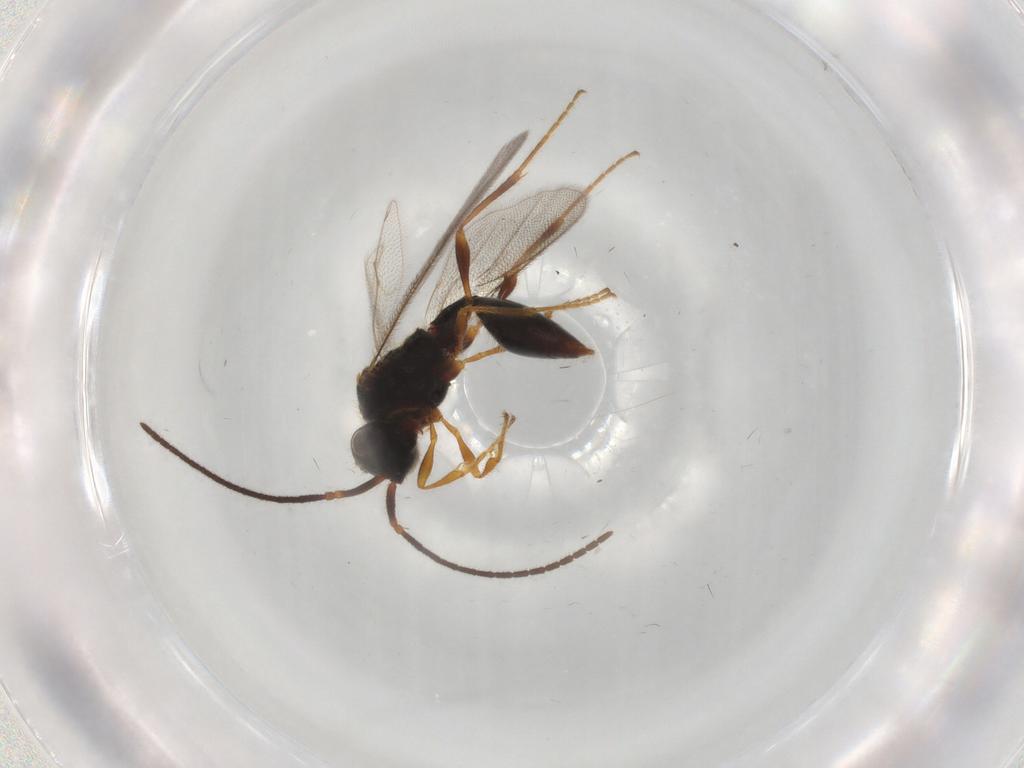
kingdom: Animalia
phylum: Arthropoda
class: Insecta
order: Hymenoptera
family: Formicidae
